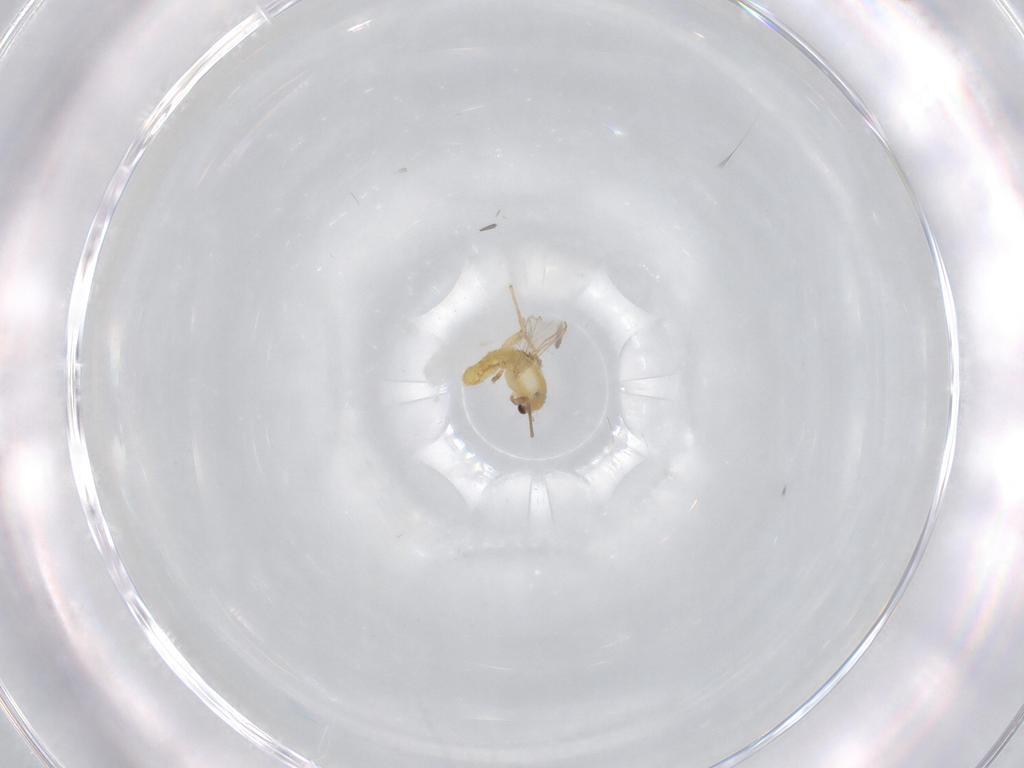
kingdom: Animalia
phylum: Arthropoda
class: Insecta
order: Diptera
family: Chironomidae
